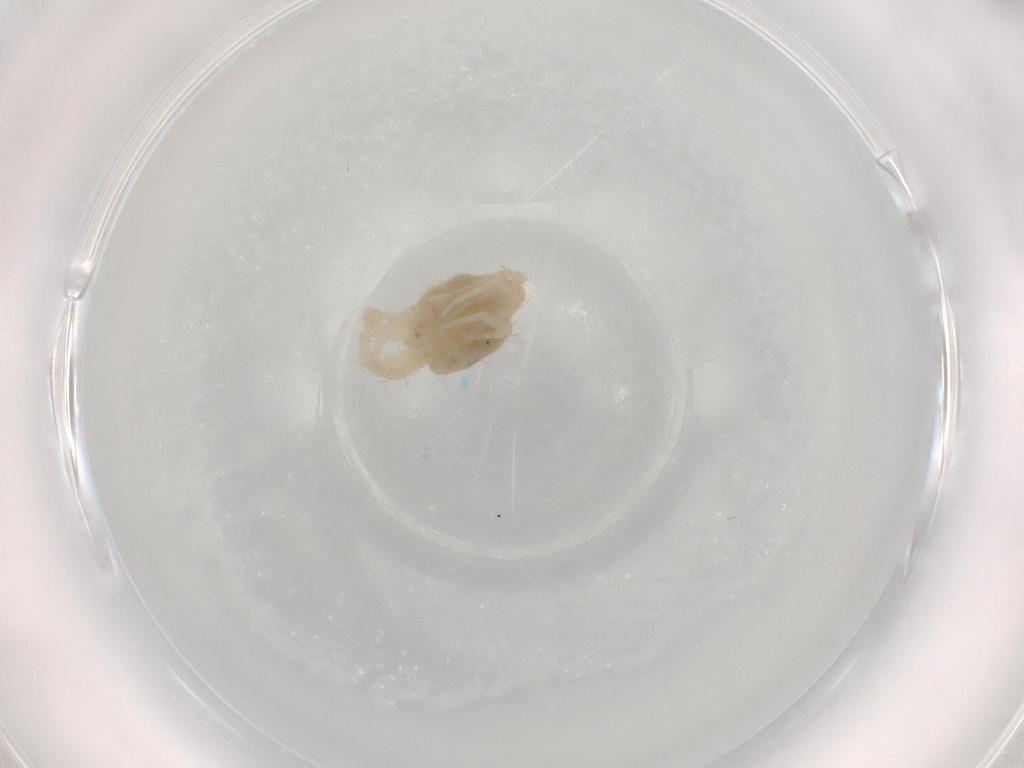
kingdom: Animalia
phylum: Arthropoda
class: Arachnida
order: Trombidiformes
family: Anystidae
